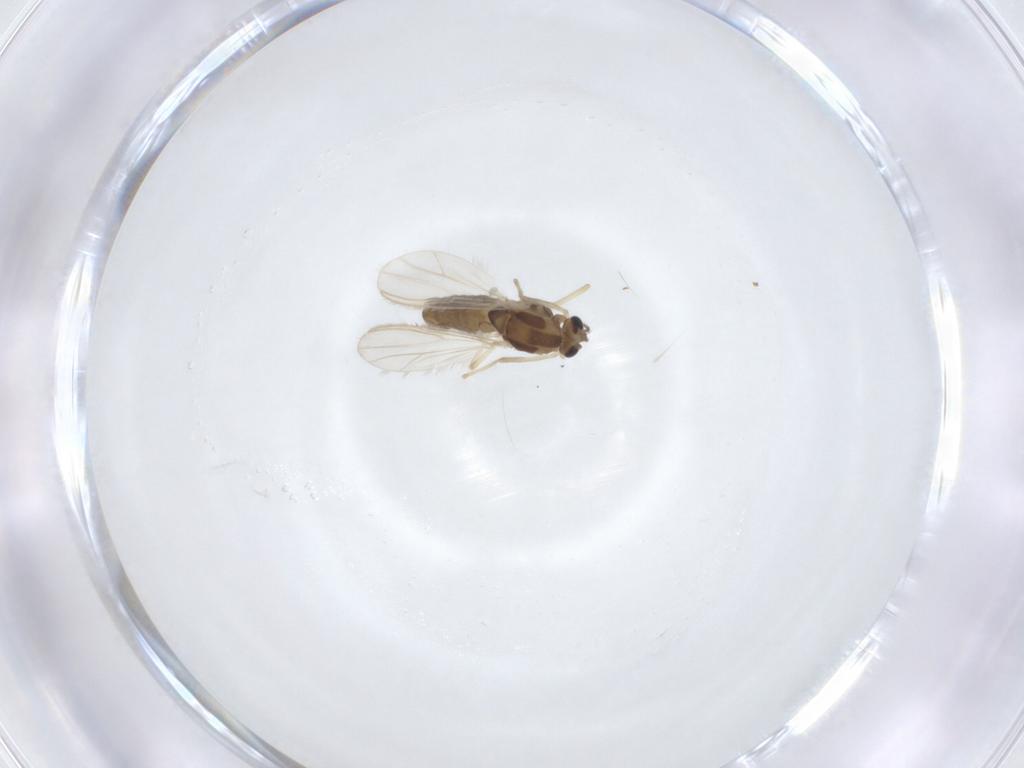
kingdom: Animalia
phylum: Arthropoda
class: Insecta
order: Diptera
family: Chironomidae
